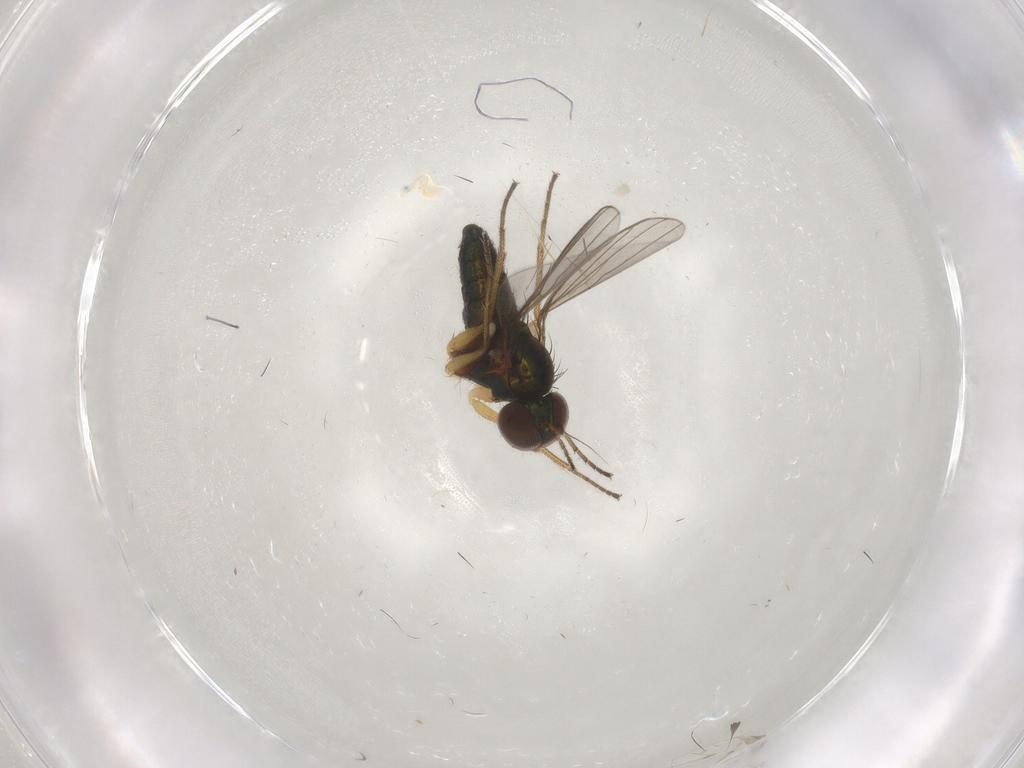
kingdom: Animalia
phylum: Arthropoda
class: Insecta
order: Diptera
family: Dolichopodidae
